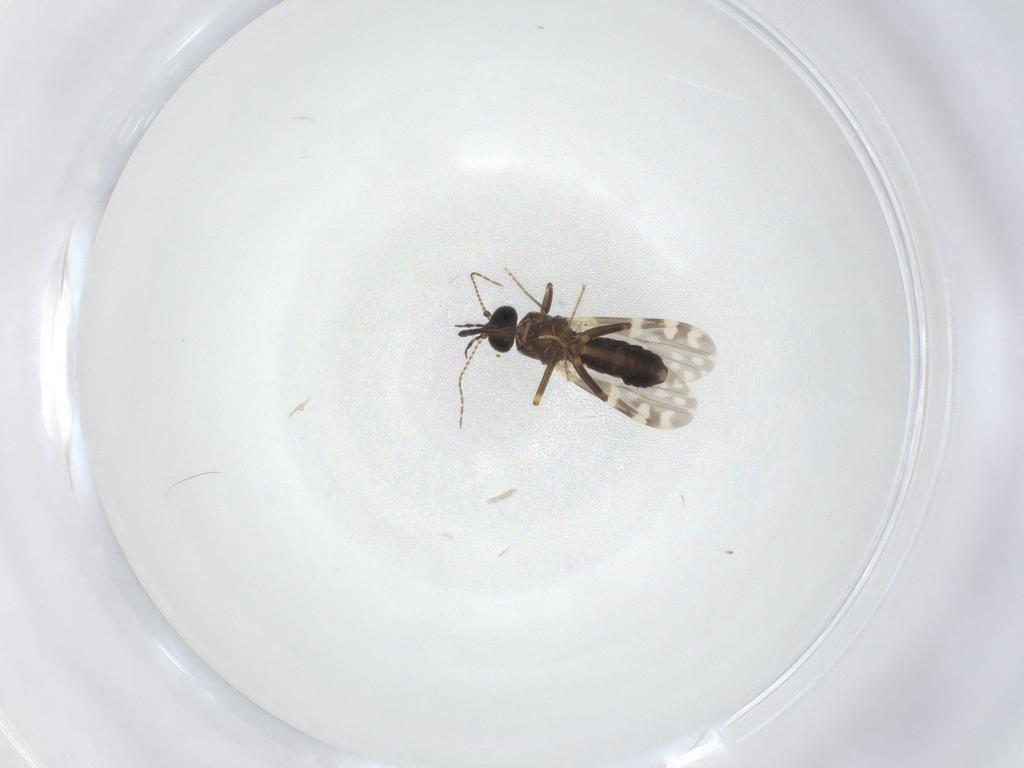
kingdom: Animalia
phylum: Arthropoda
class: Insecta
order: Diptera
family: Ceratopogonidae
